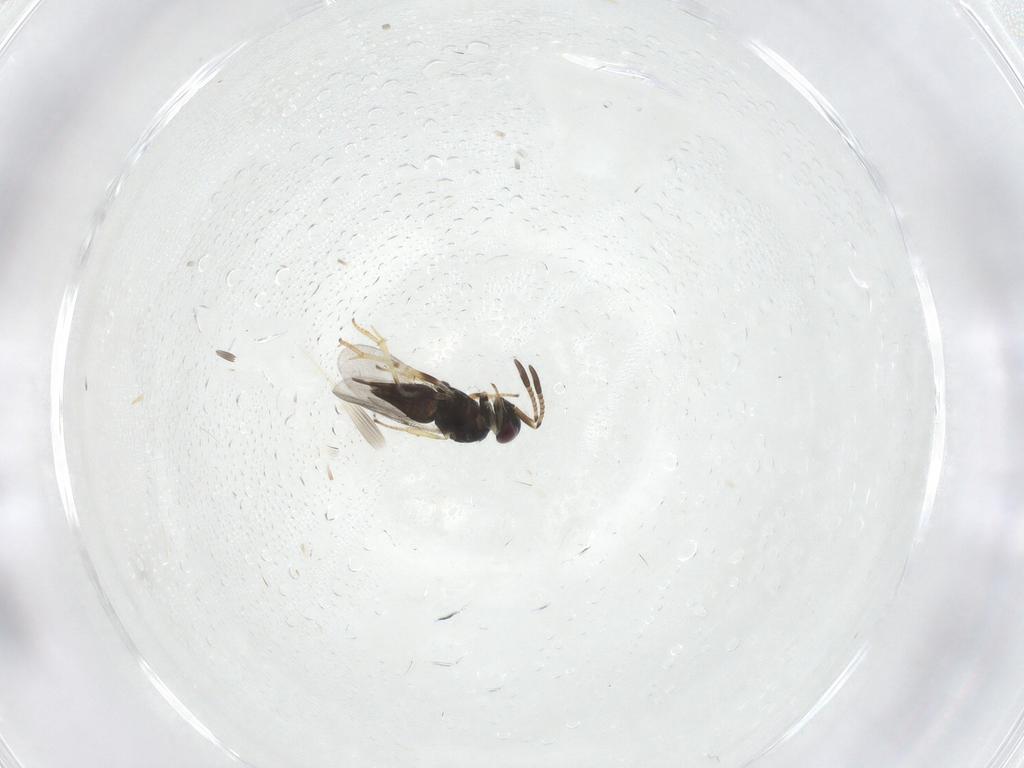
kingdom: Animalia
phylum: Arthropoda
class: Insecta
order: Hymenoptera
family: Encyrtidae
